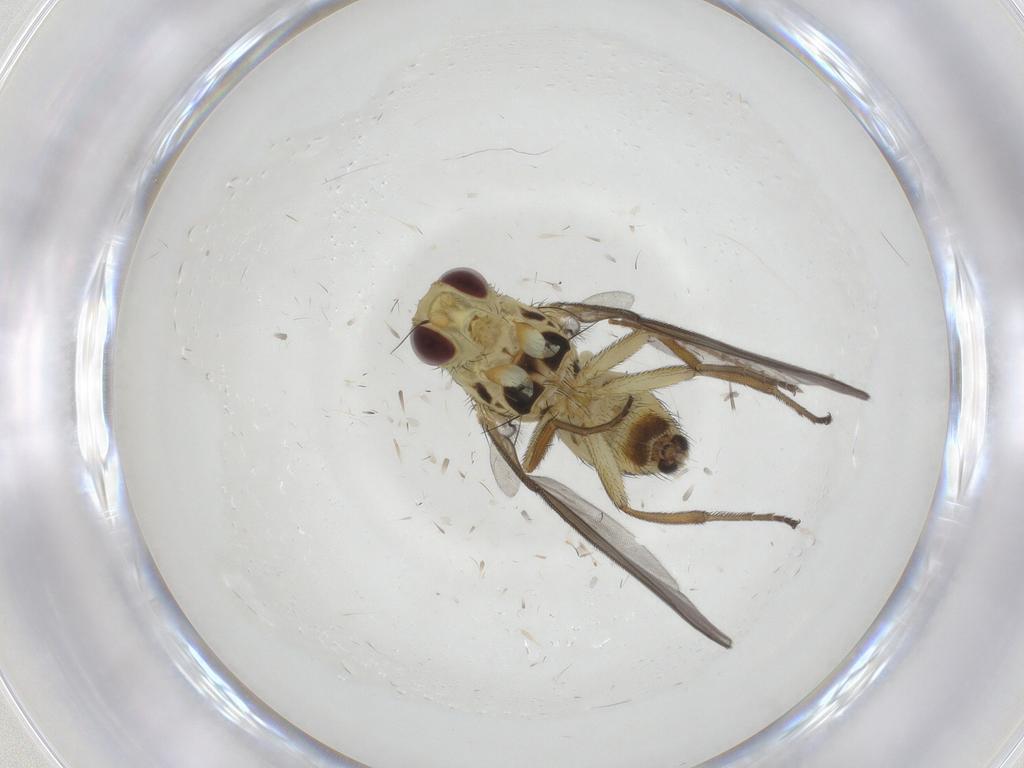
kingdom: Animalia
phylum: Arthropoda
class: Insecta
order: Diptera
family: Agromyzidae
